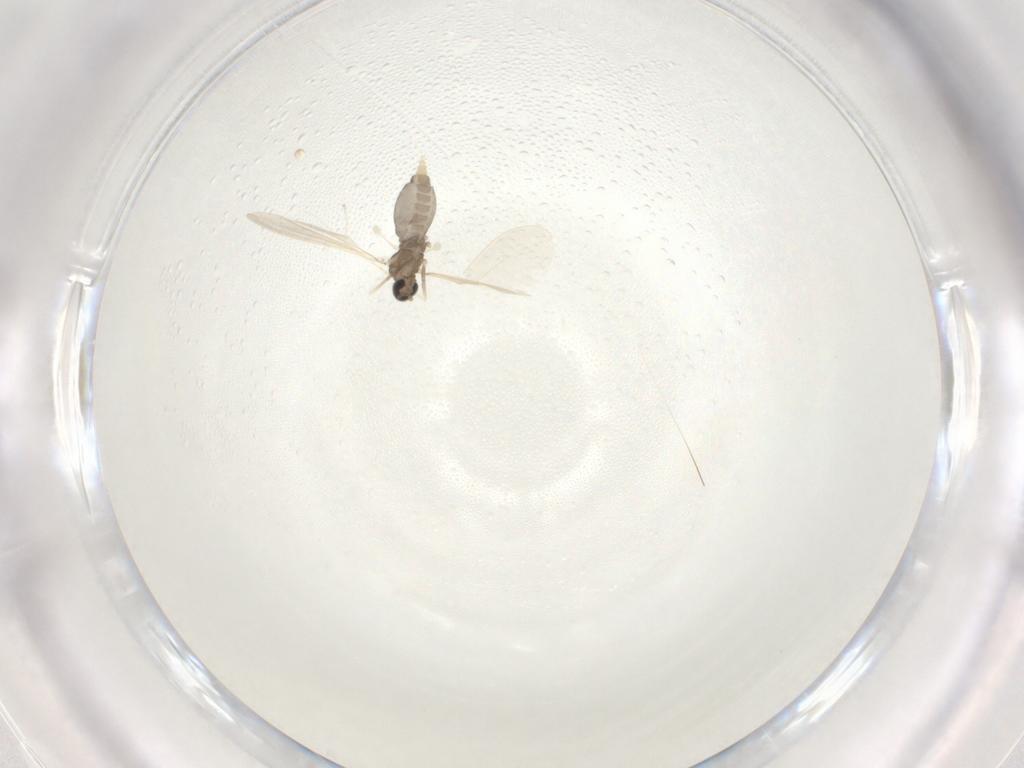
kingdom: Animalia
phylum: Arthropoda
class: Insecta
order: Diptera
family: Cecidomyiidae
